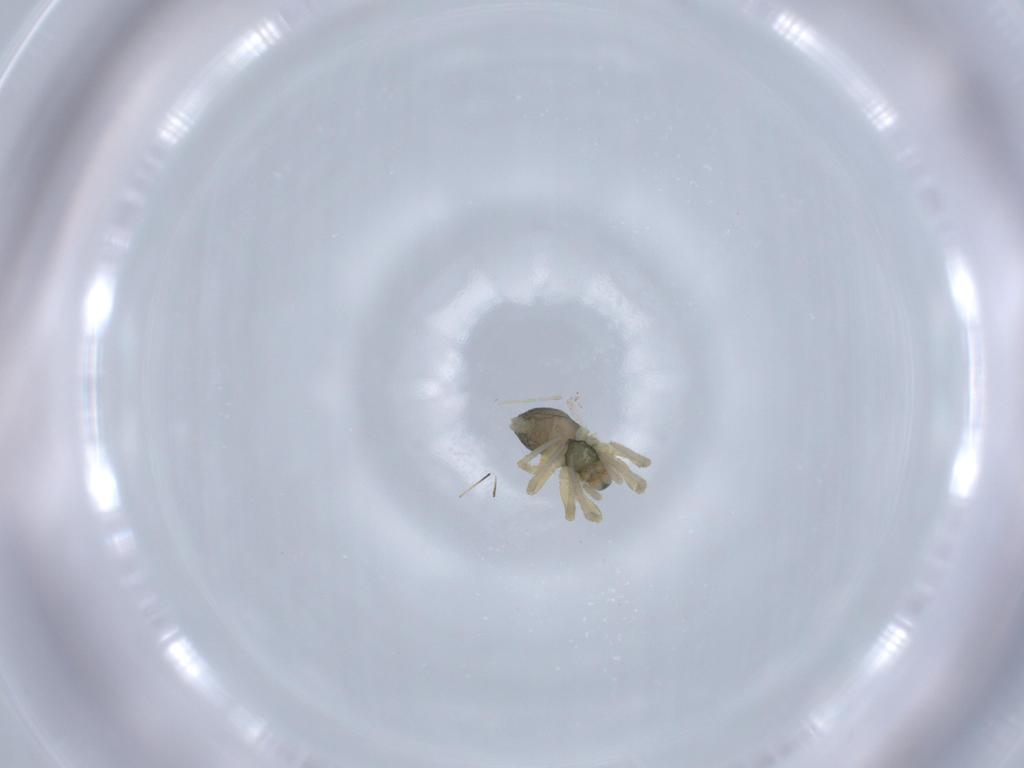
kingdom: Animalia
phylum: Arthropoda
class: Arachnida
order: Araneae
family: Linyphiidae
